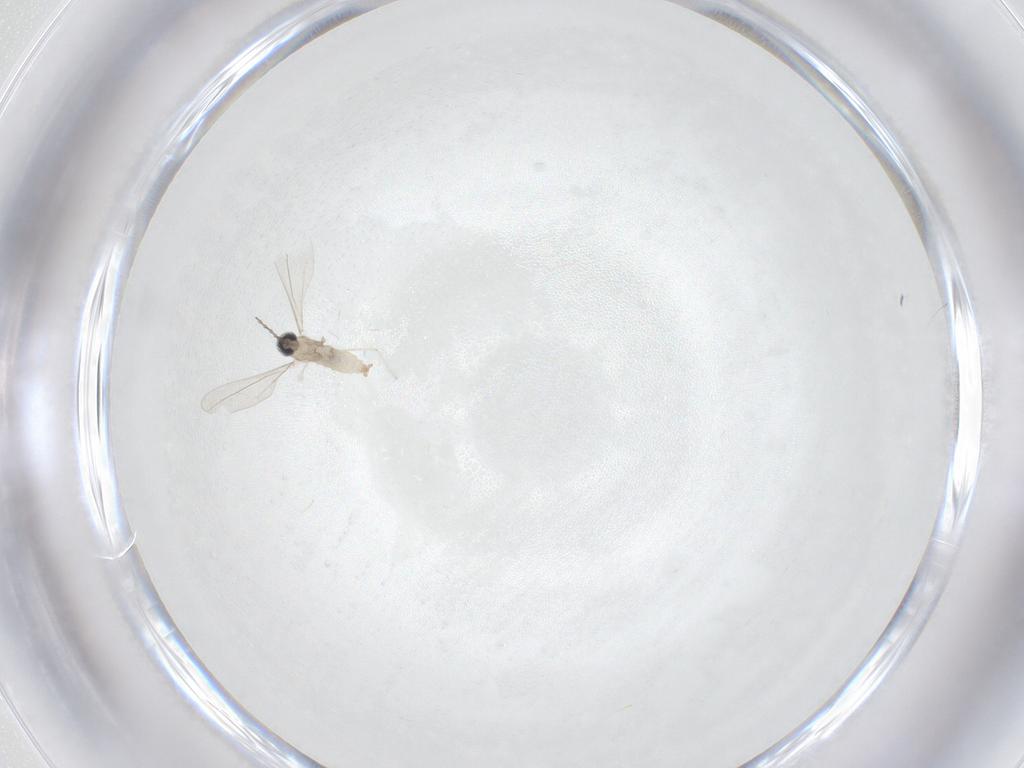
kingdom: Animalia
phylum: Arthropoda
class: Insecta
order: Diptera
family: Cecidomyiidae
